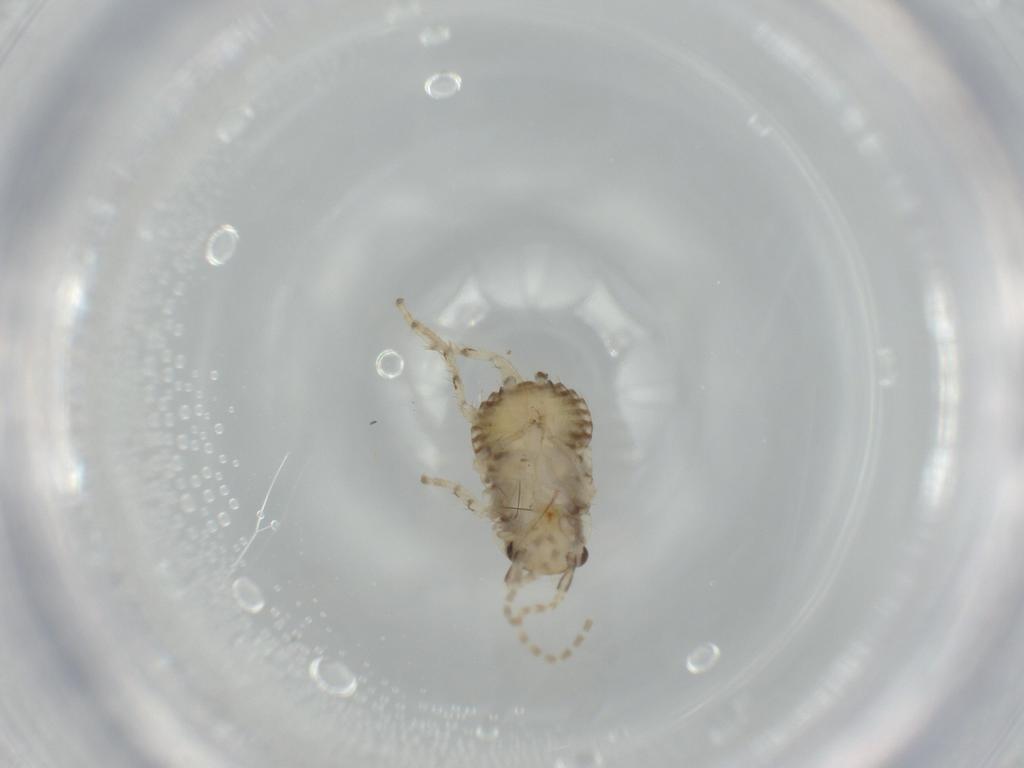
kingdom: Animalia
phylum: Arthropoda
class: Insecta
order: Blattodea
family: Ectobiidae
